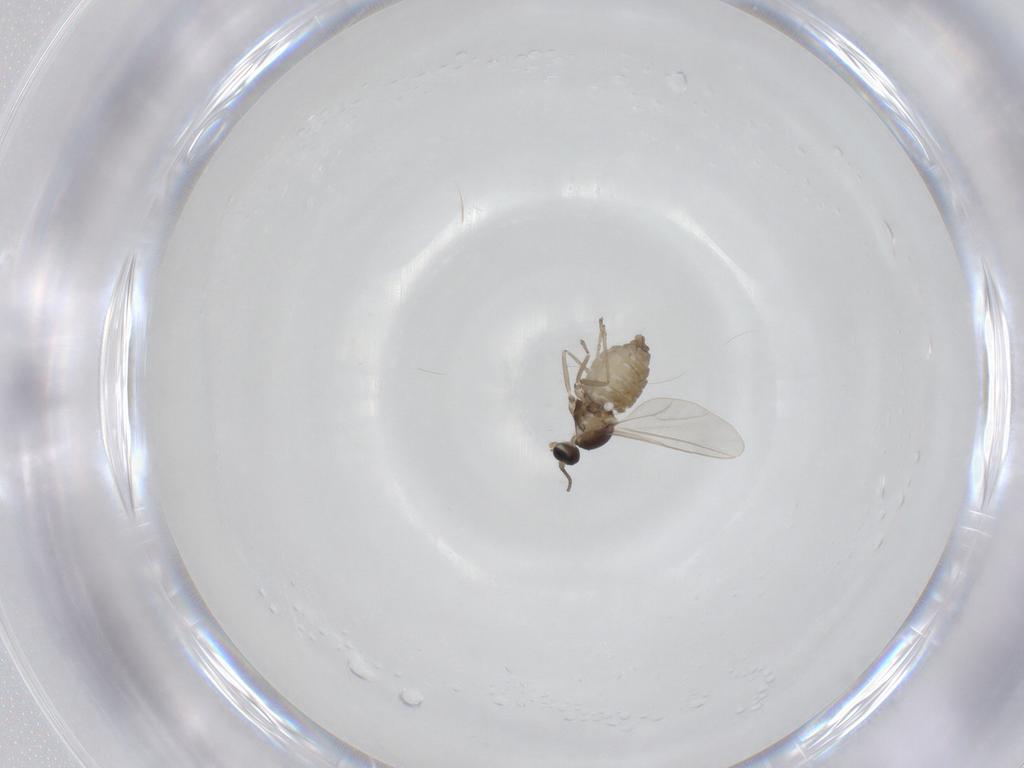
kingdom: Animalia
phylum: Arthropoda
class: Insecta
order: Diptera
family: Cecidomyiidae
